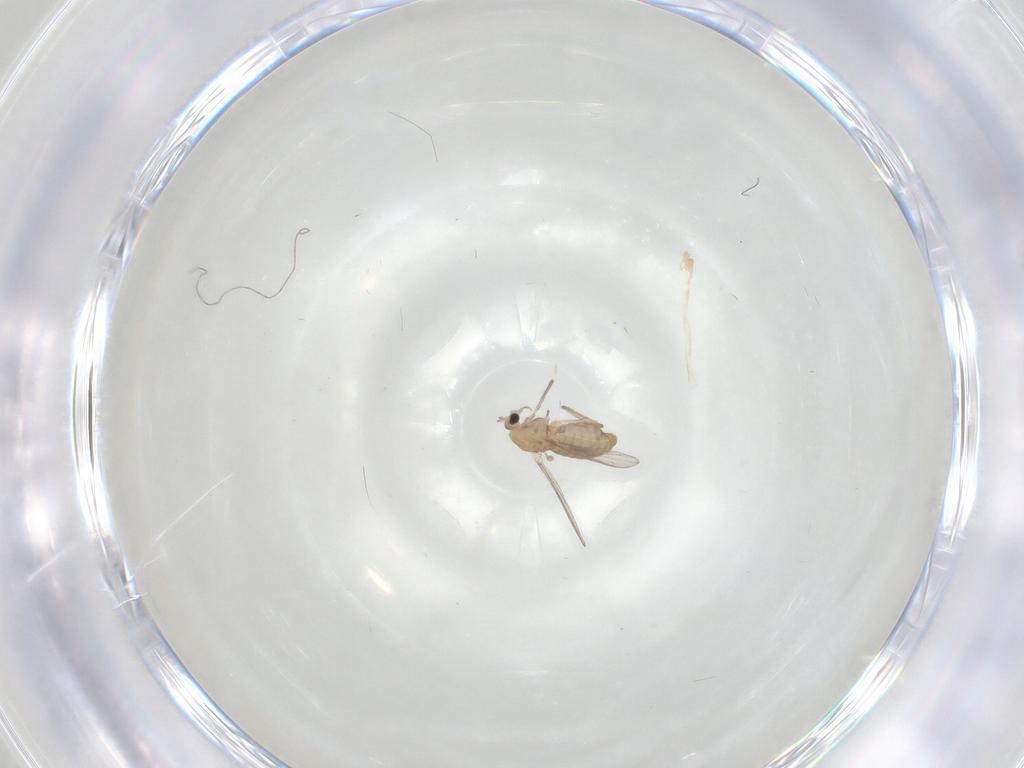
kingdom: Animalia
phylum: Arthropoda
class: Insecta
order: Diptera
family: Chironomidae
